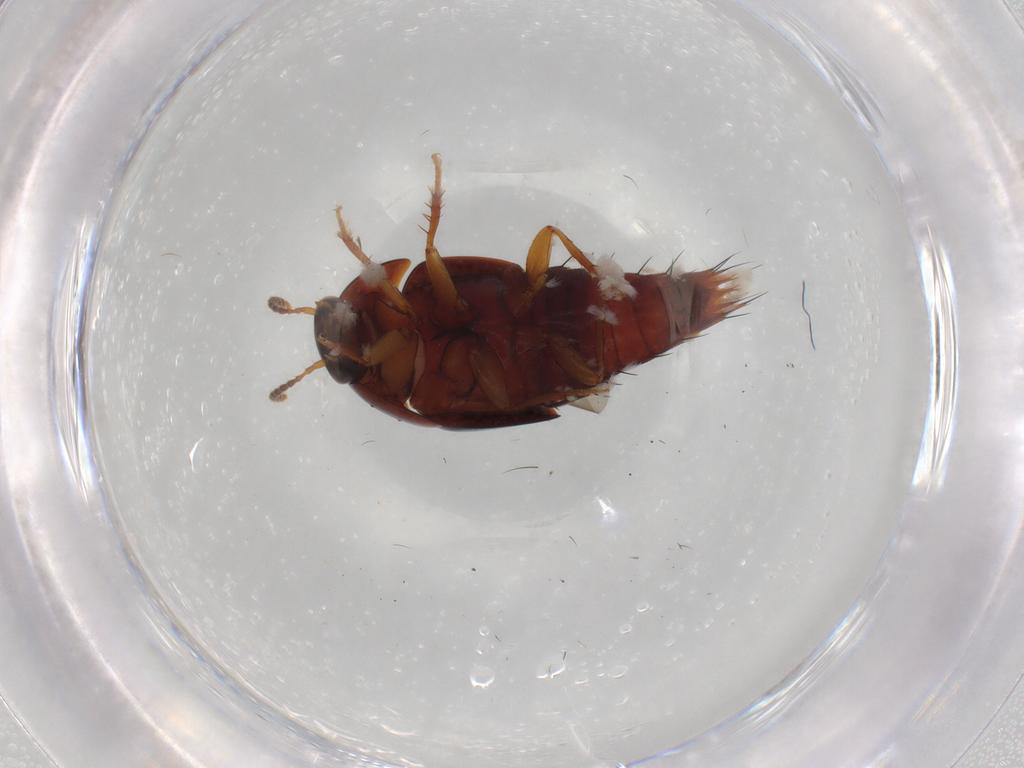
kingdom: Animalia
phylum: Arthropoda
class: Insecta
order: Coleoptera
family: Staphylinidae
